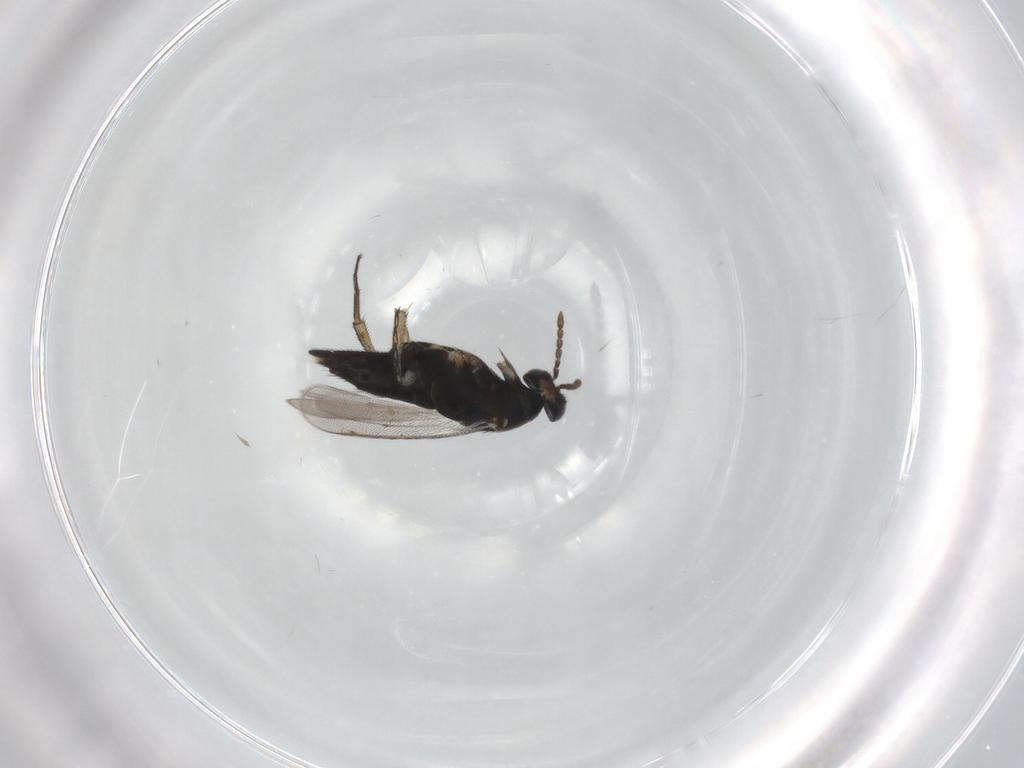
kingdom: Animalia
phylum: Arthropoda
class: Insecta
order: Hymenoptera
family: Eulophidae
